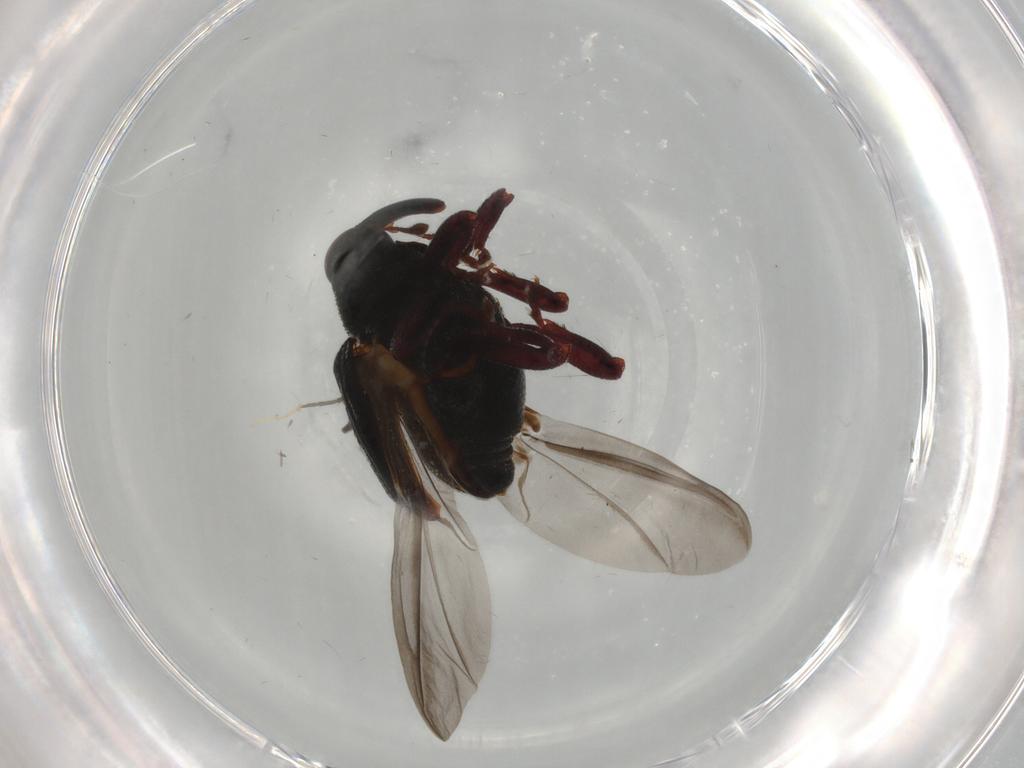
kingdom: Animalia
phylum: Arthropoda
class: Insecta
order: Coleoptera
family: Curculionidae
